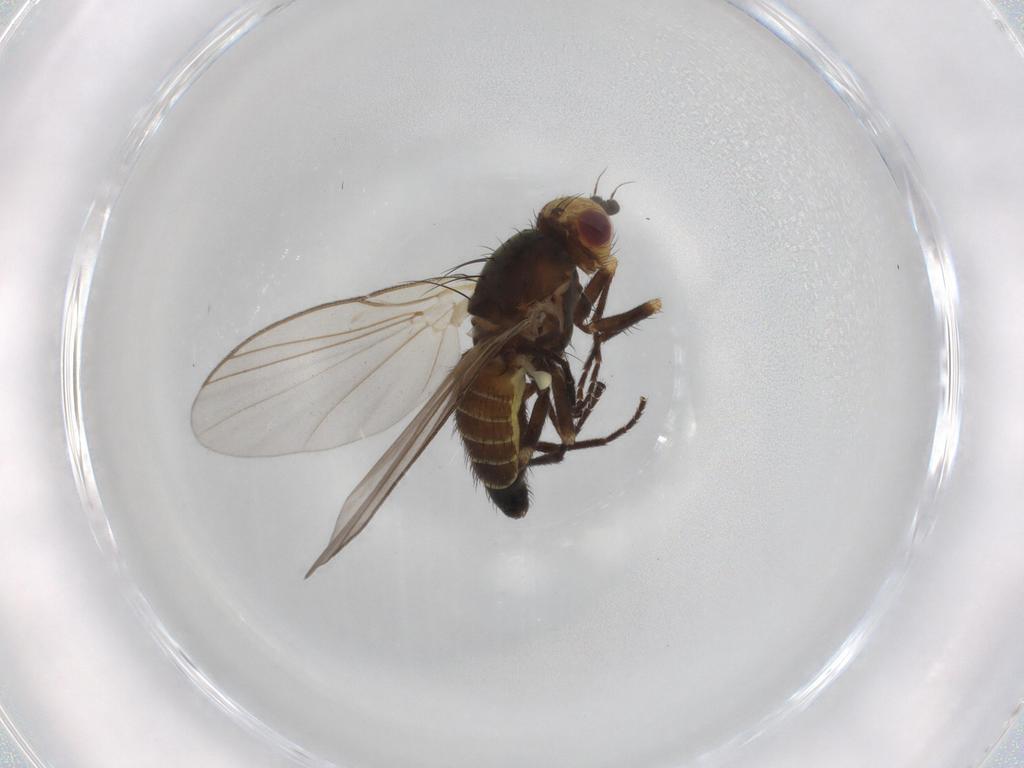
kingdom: Animalia
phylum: Arthropoda
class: Insecta
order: Diptera
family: Agromyzidae
